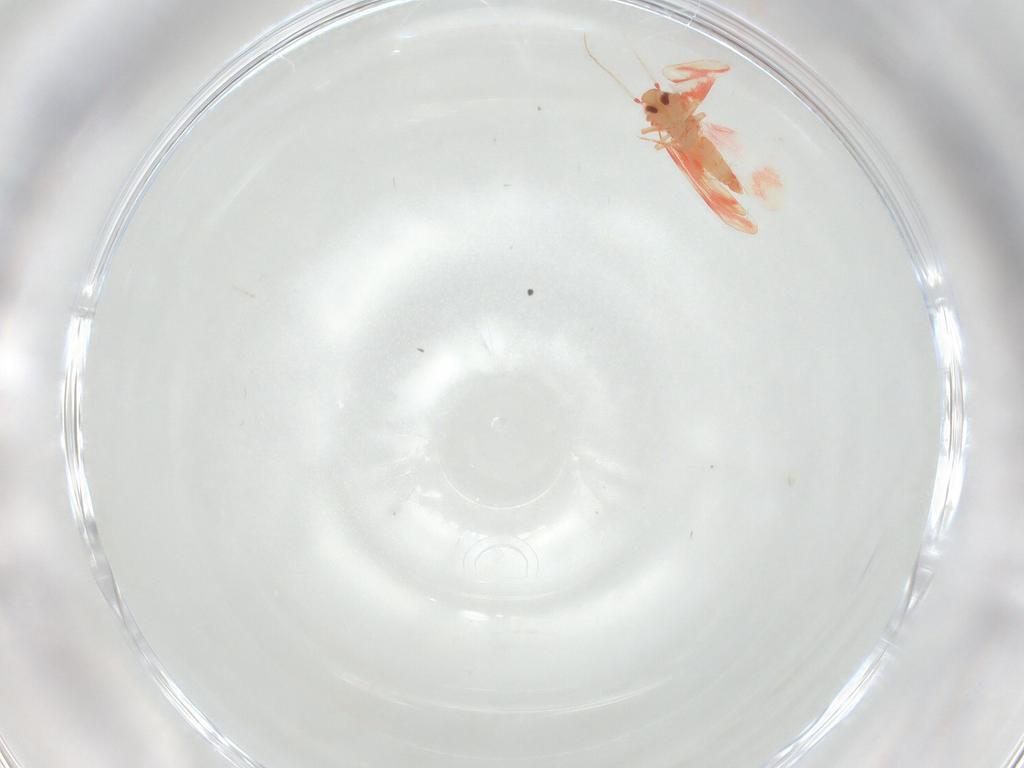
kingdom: Animalia
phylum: Arthropoda
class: Insecta
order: Hemiptera
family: Aleyrodidae
